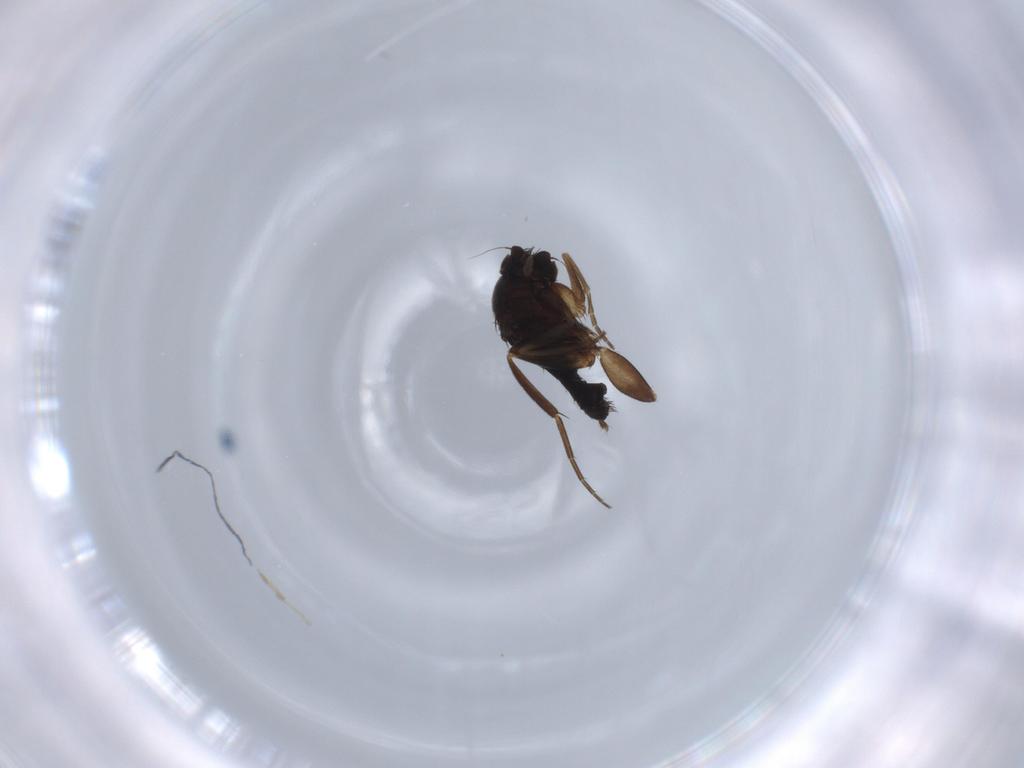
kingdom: Animalia
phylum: Arthropoda
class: Insecta
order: Diptera
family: Phoridae
